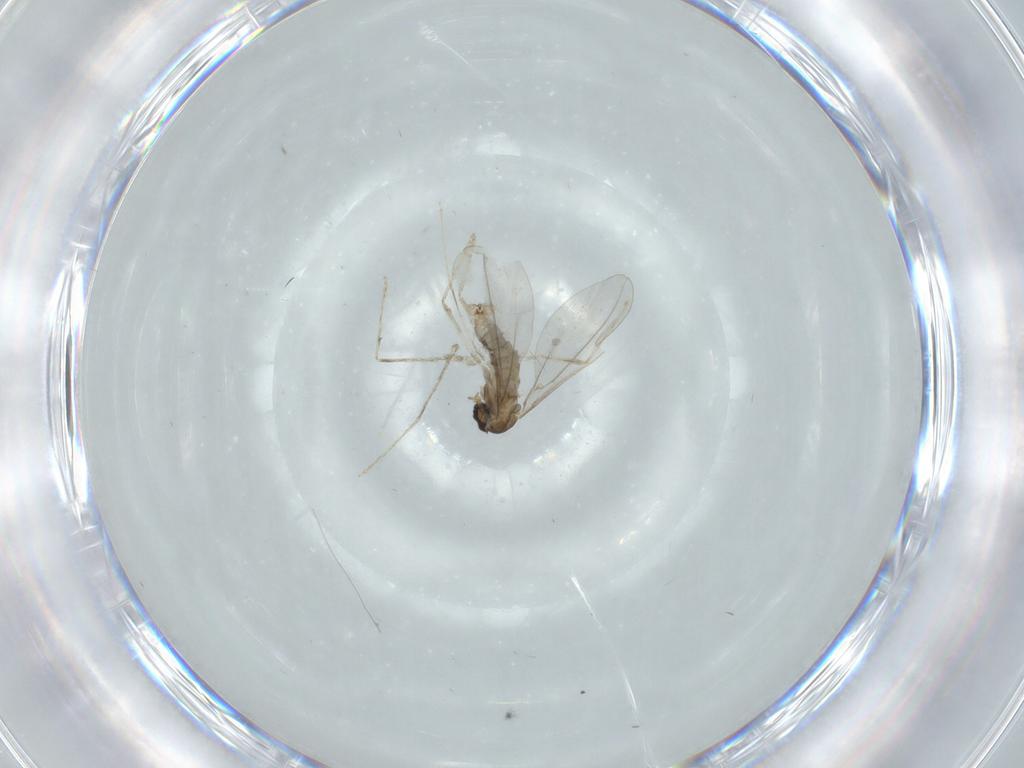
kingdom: Animalia
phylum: Arthropoda
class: Insecta
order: Diptera
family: Cecidomyiidae
